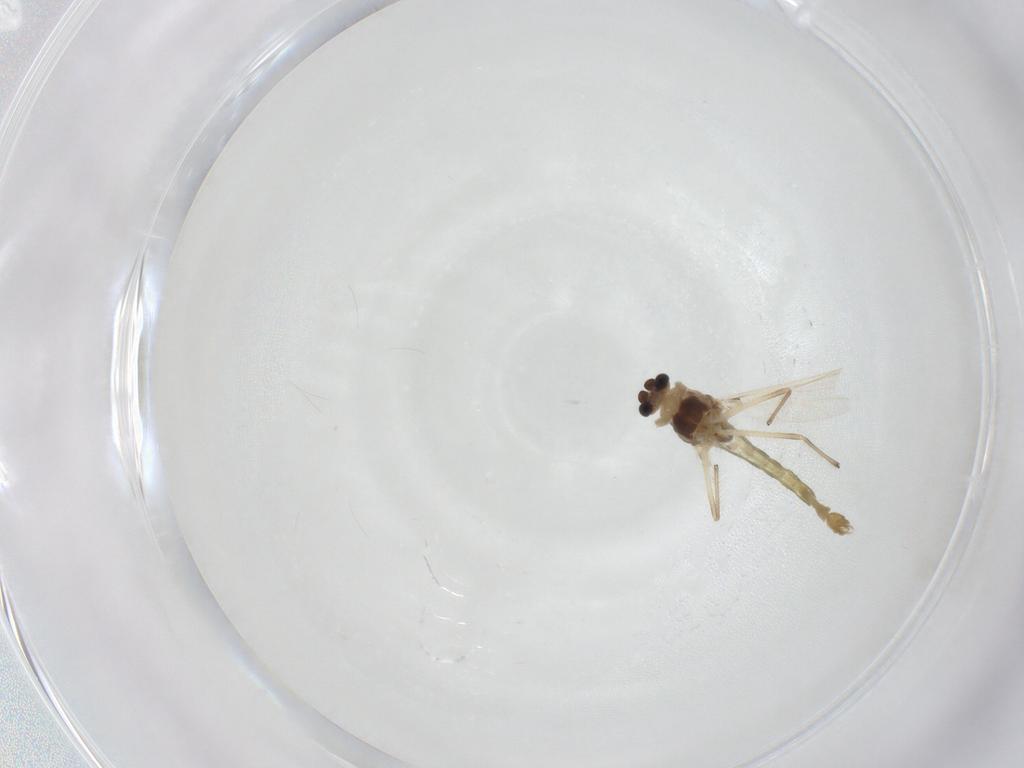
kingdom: Animalia
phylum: Arthropoda
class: Insecta
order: Diptera
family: Chironomidae
